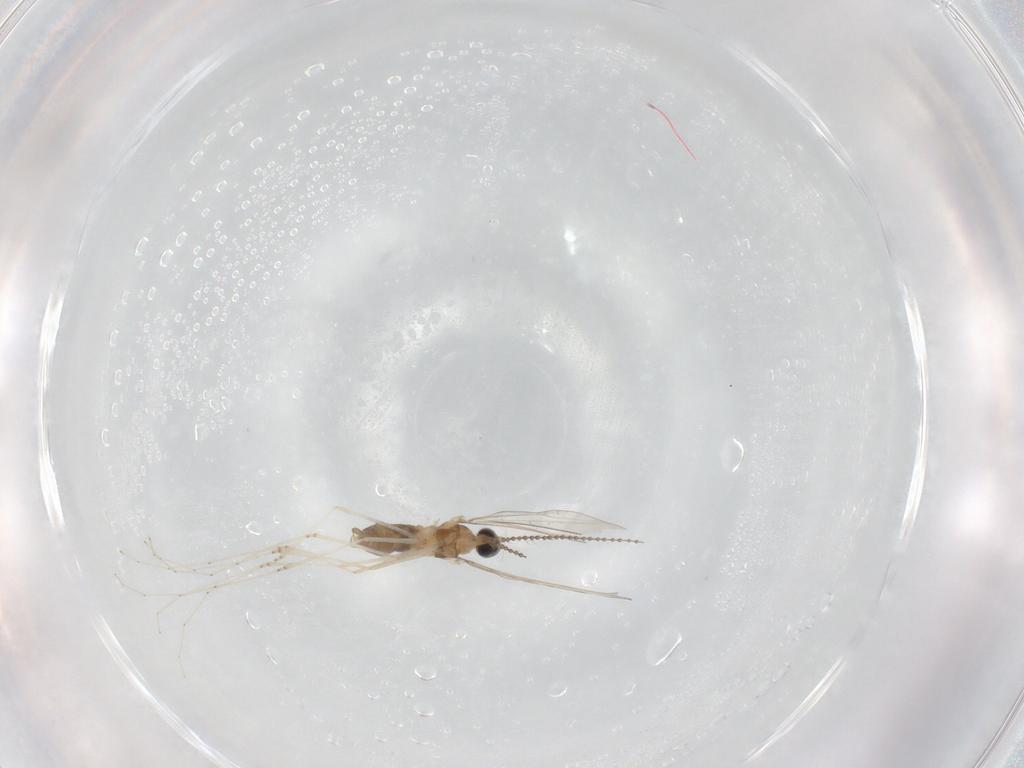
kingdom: Animalia
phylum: Arthropoda
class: Insecta
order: Diptera
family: Cecidomyiidae
